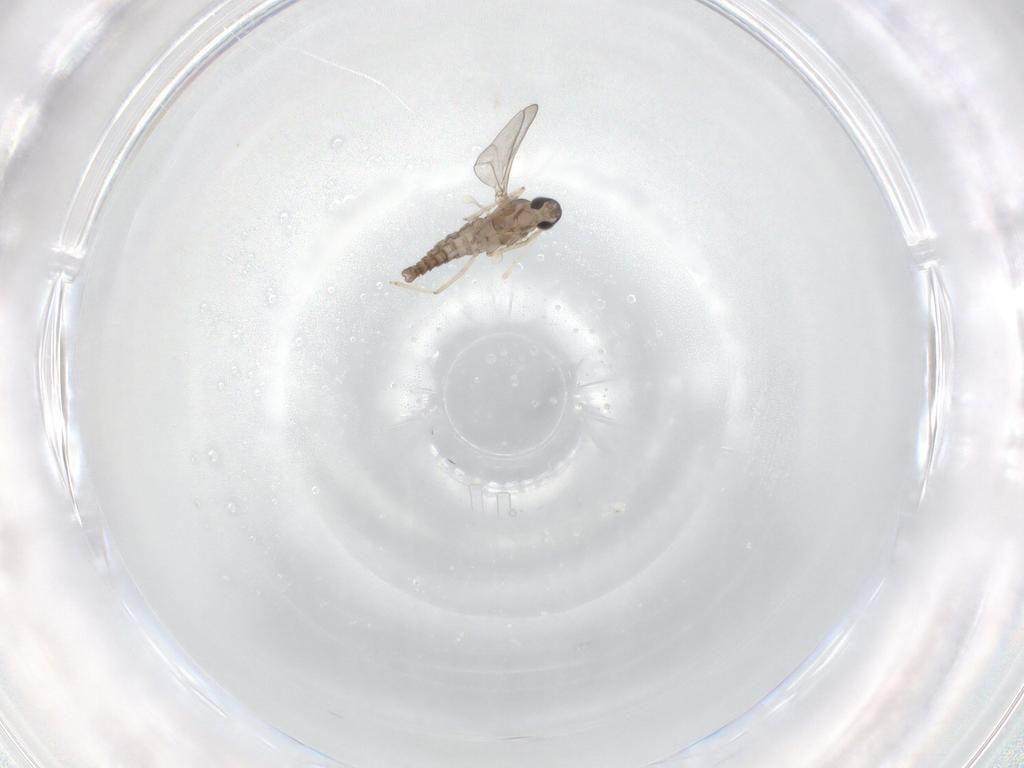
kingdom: Animalia
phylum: Arthropoda
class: Insecta
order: Diptera
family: Cecidomyiidae
